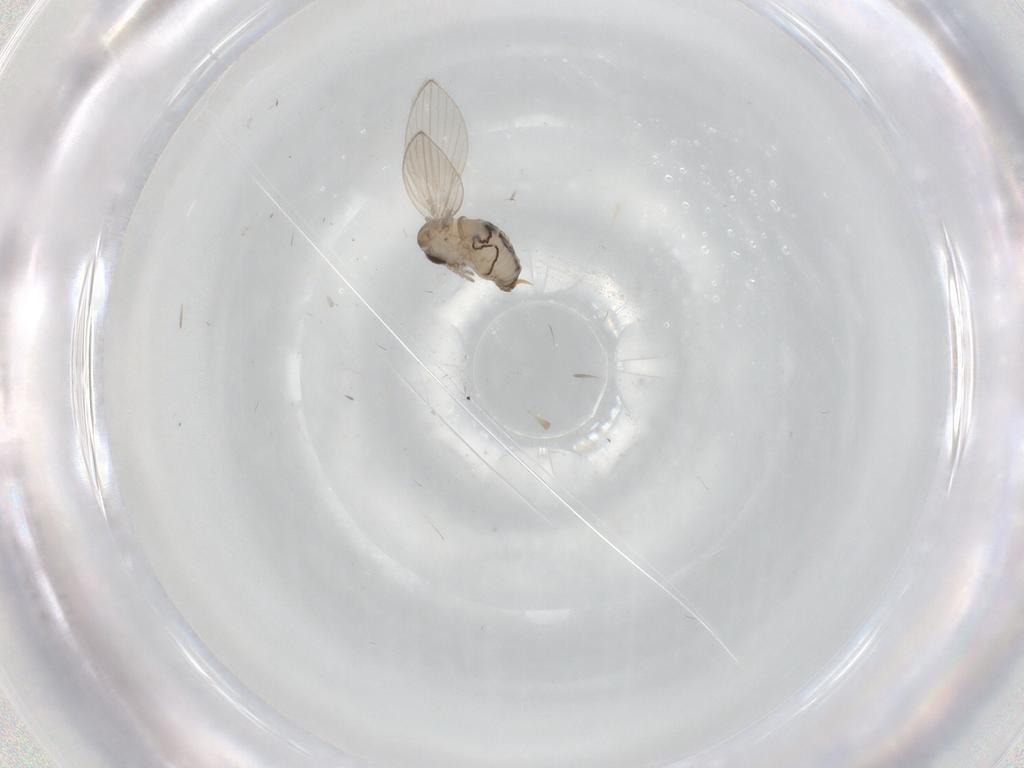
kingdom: Animalia
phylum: Arthropoda
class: Insecta
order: Diptera
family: Psychodidae
